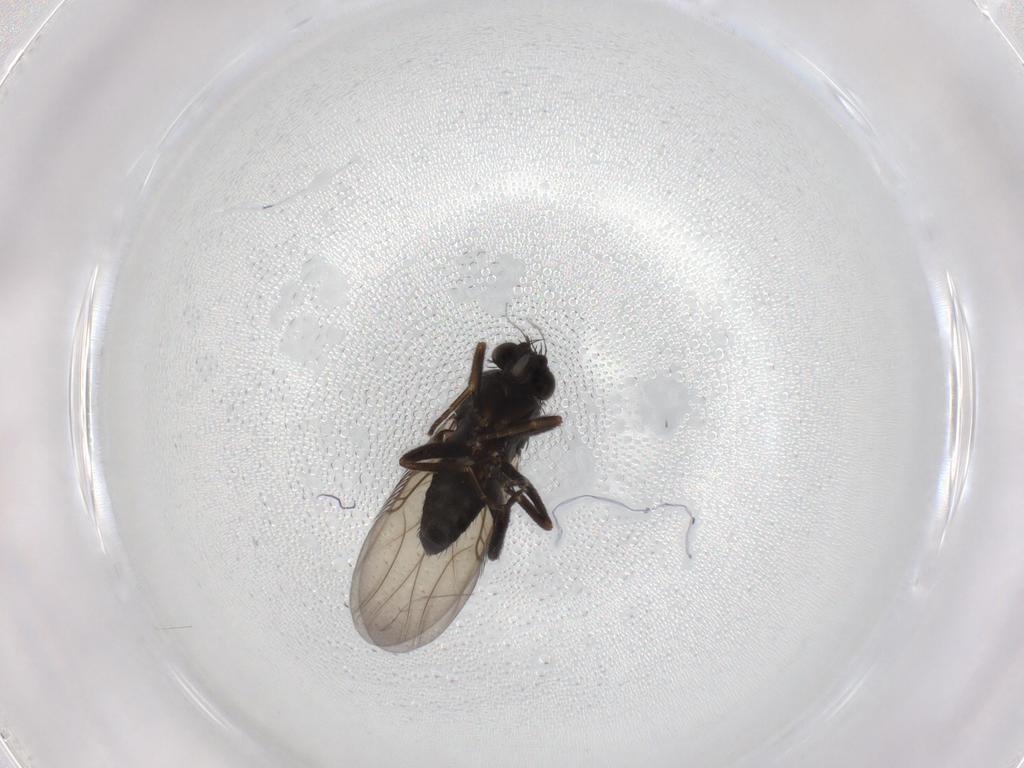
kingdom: Animalia
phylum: Arthropoda
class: Insecta
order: Diptera
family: Phoridae
